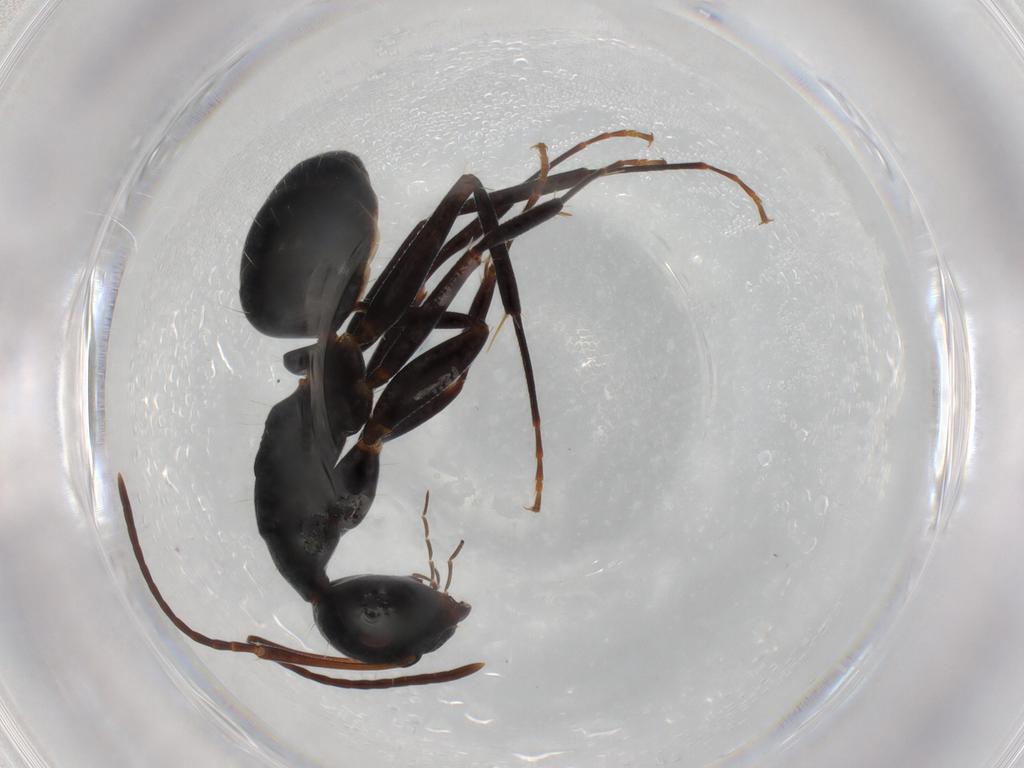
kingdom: Animalia
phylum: Arthropoda
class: Insecta
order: Hymenoptera
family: Formicidae
